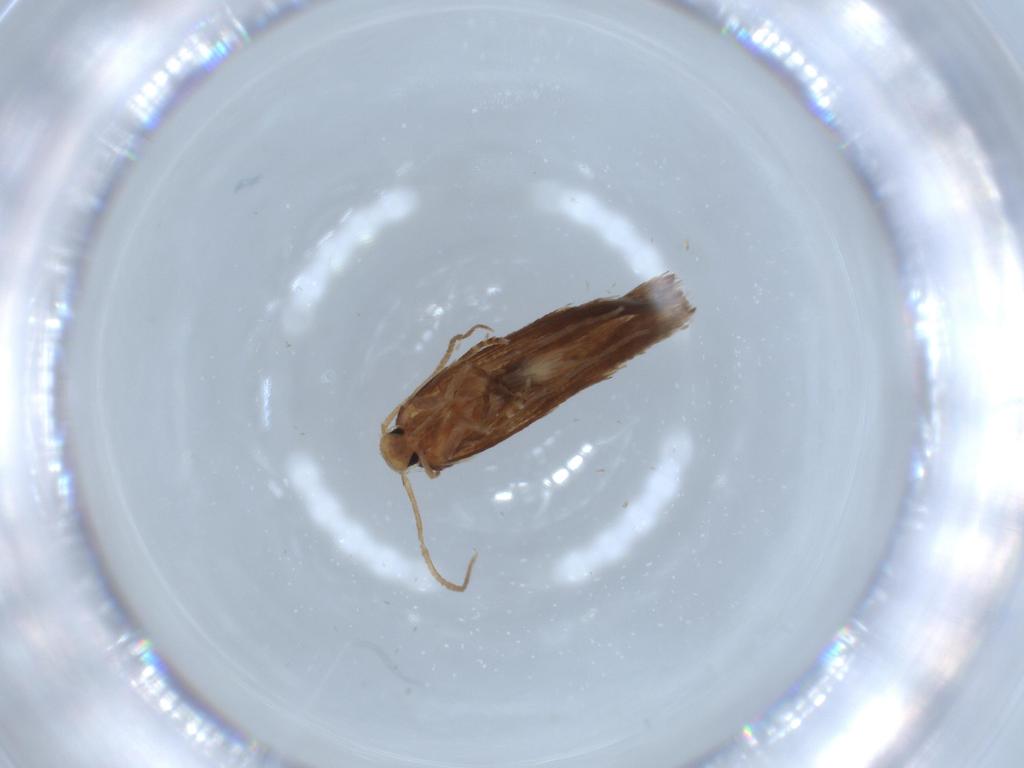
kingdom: Animalia
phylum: Arthropoda
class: Insecta
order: Lepidoptera
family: Elachistidae
